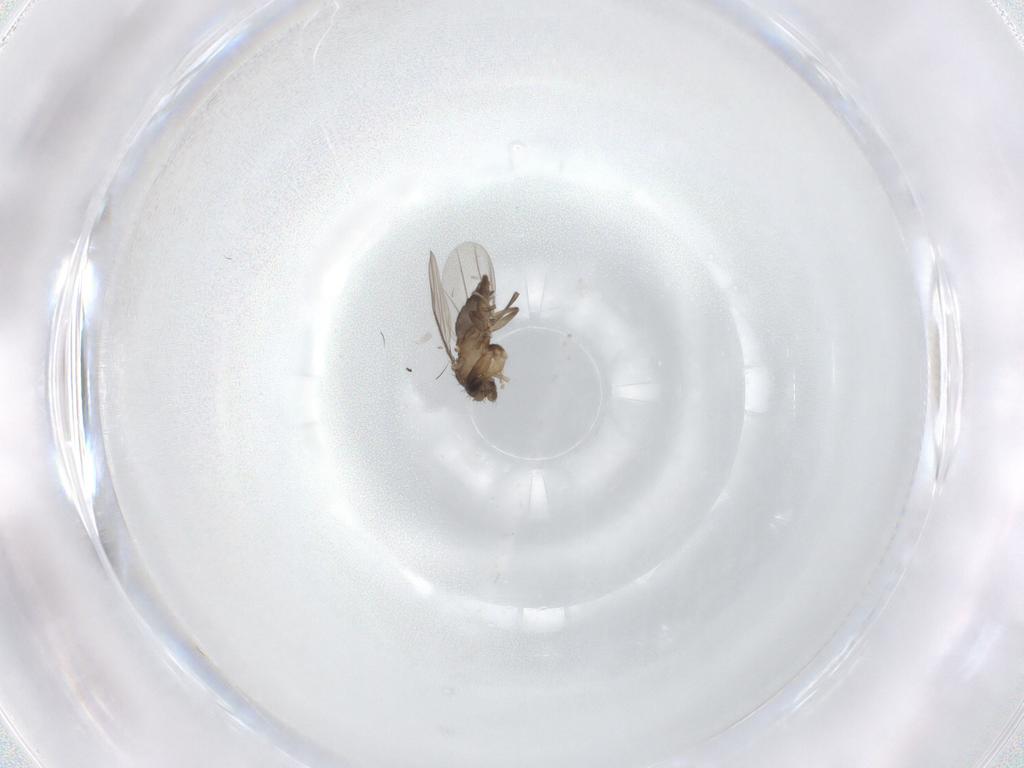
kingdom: Animalia
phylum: Arthropoda
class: Insecta
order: Diptera
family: Phoridae
